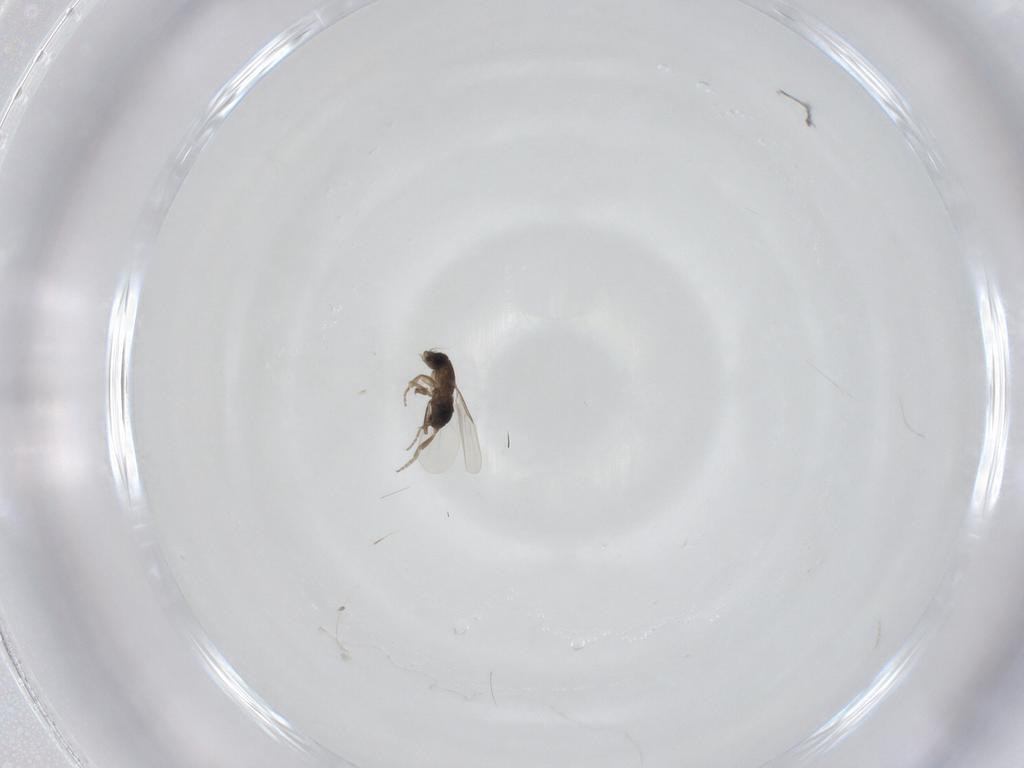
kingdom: Animalia
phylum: Arthropoda
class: Insecta
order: Diptera
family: Phoridae
